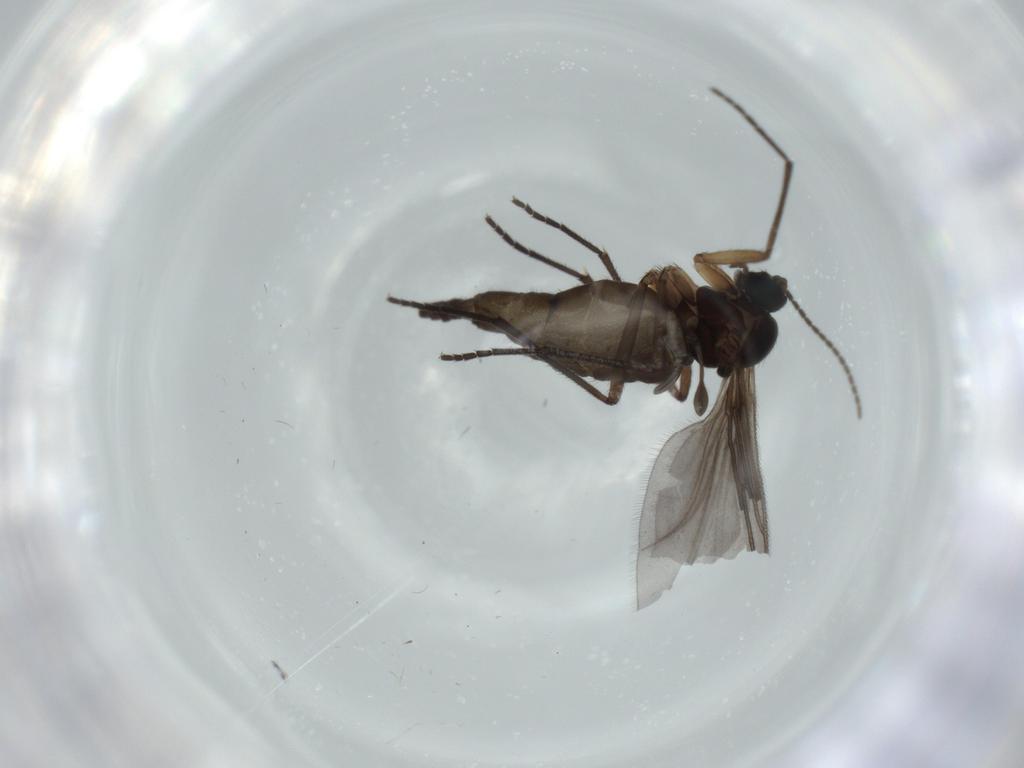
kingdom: Animalia
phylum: Arthropoda
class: Insecta
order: Diptera
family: Sciaridae
